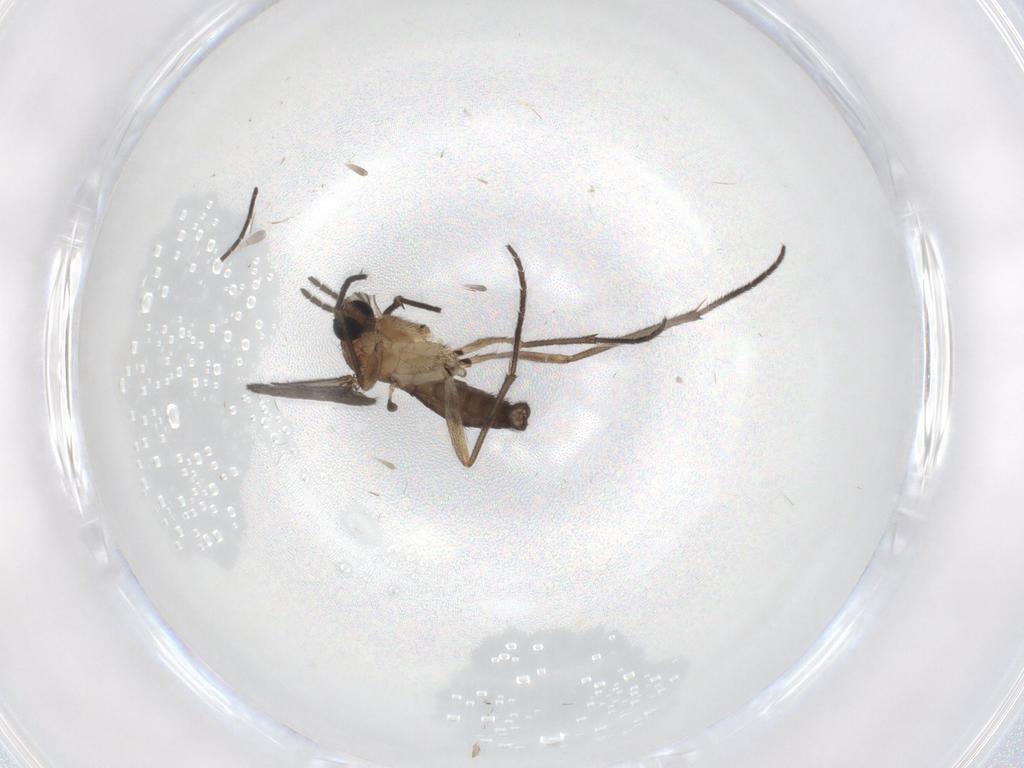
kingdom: Animalia
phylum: Arthropoda
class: Insecta
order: Diptera
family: Sciaridae
